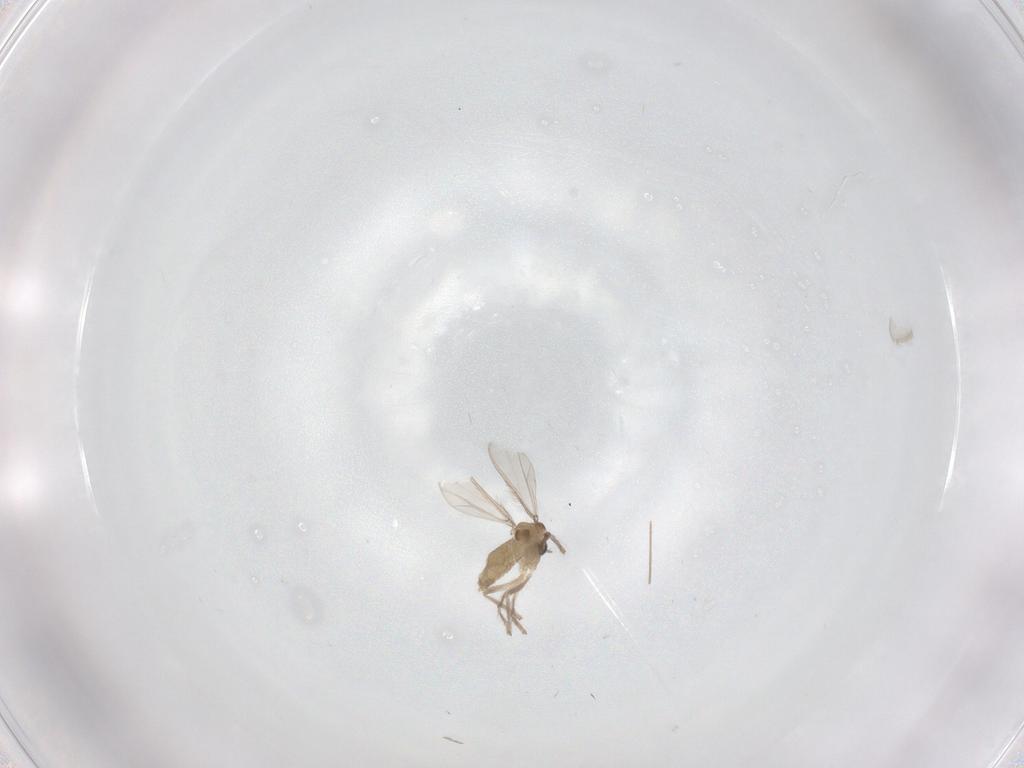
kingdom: Animalia
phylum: Arthropoda
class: Insecta
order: Diptera
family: Chironomidae
